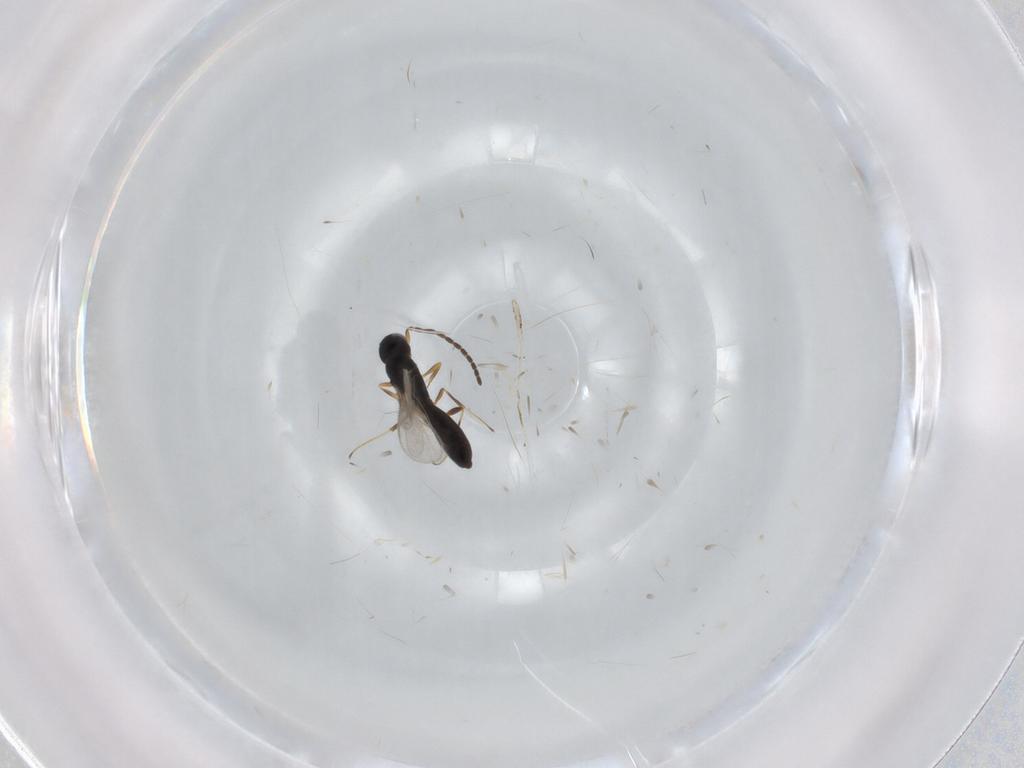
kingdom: Animalia
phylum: Arthropoda
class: Insecta
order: Hymenoptera
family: Scelionidae
